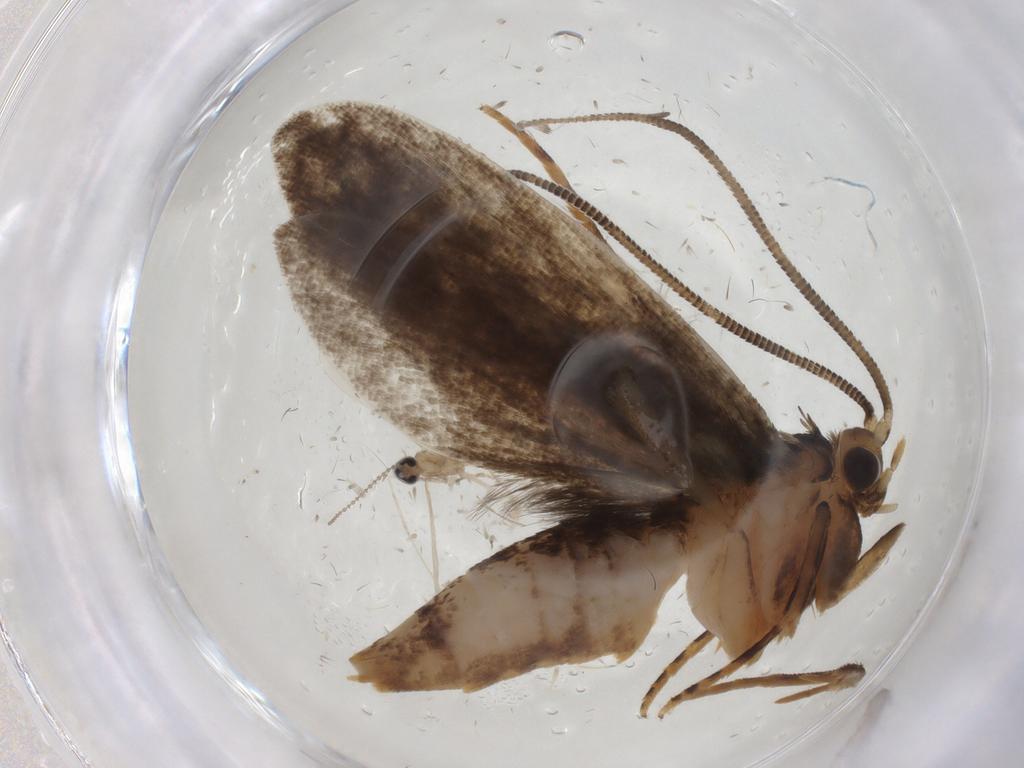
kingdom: Animalia
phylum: Arthropoda
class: Insecta
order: Lepidoptera
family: Tineidae
